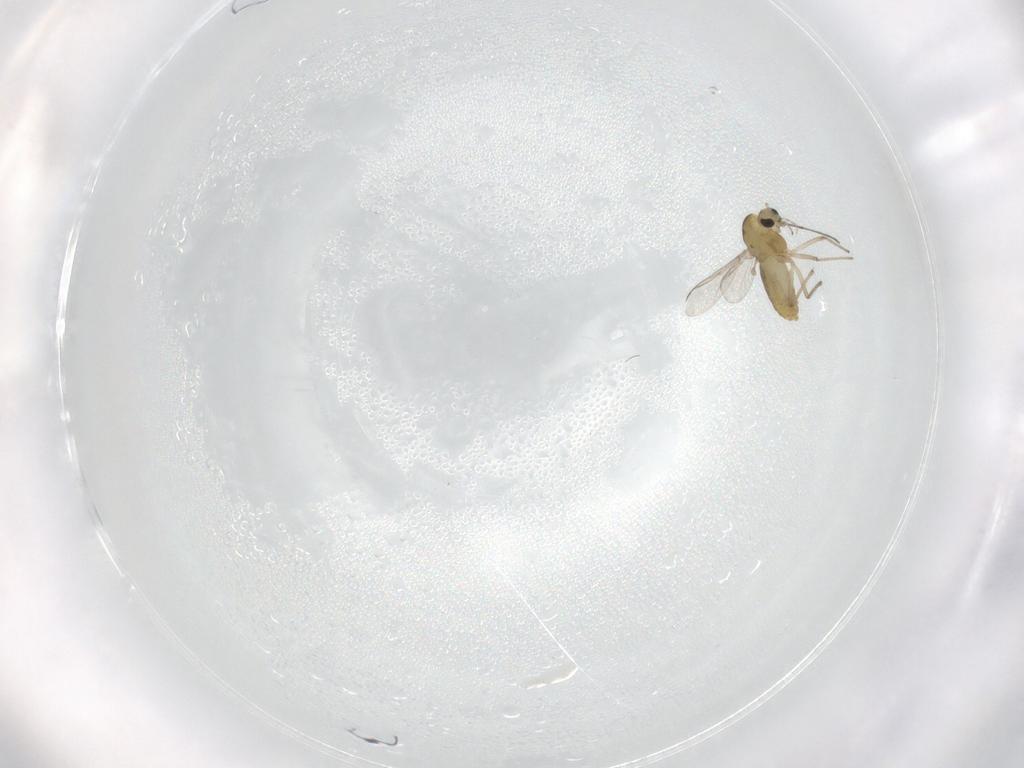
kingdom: Animalia
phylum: Arthropoda
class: Insecta
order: Diptera
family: Chironomidae
